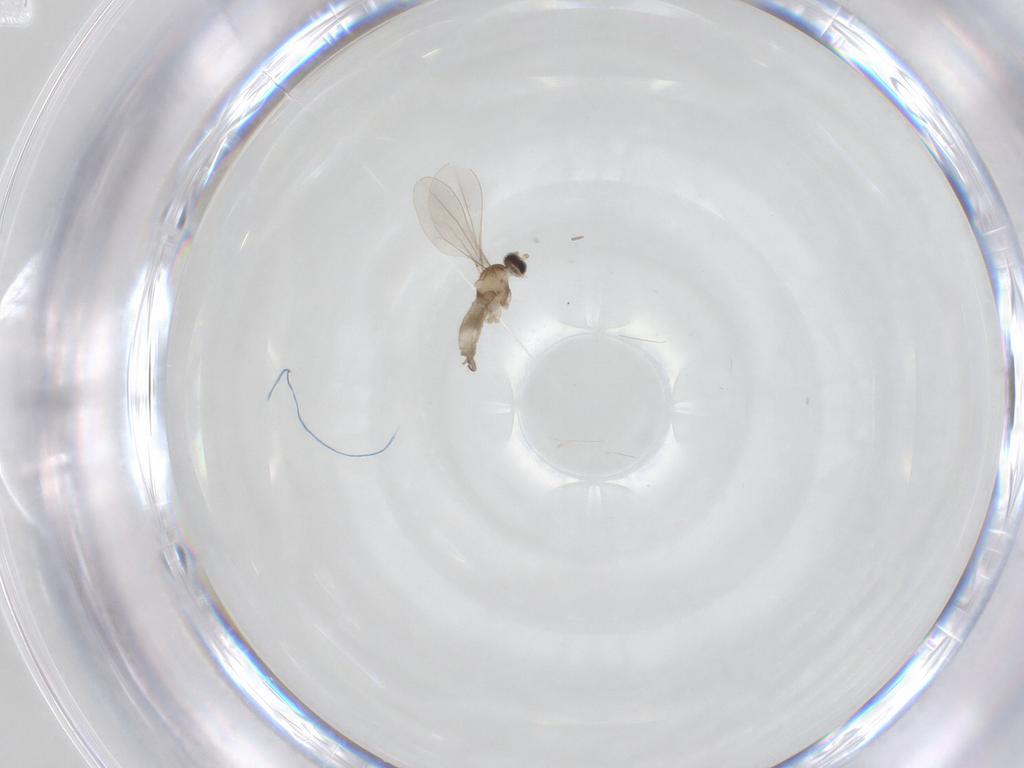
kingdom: Animalia
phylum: Arthropoda
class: Insecta
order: Diptera
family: Cecidomyiidae
